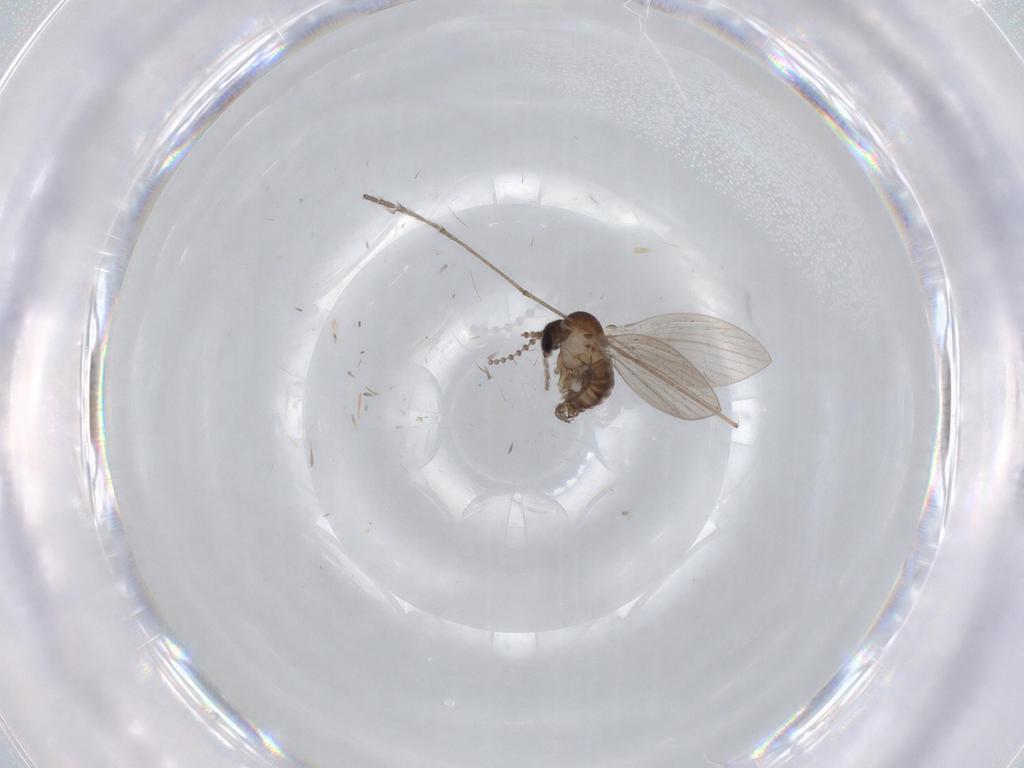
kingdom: Animalia
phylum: Arthropoda
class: Insecta
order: Diptera
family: Limoniidae
